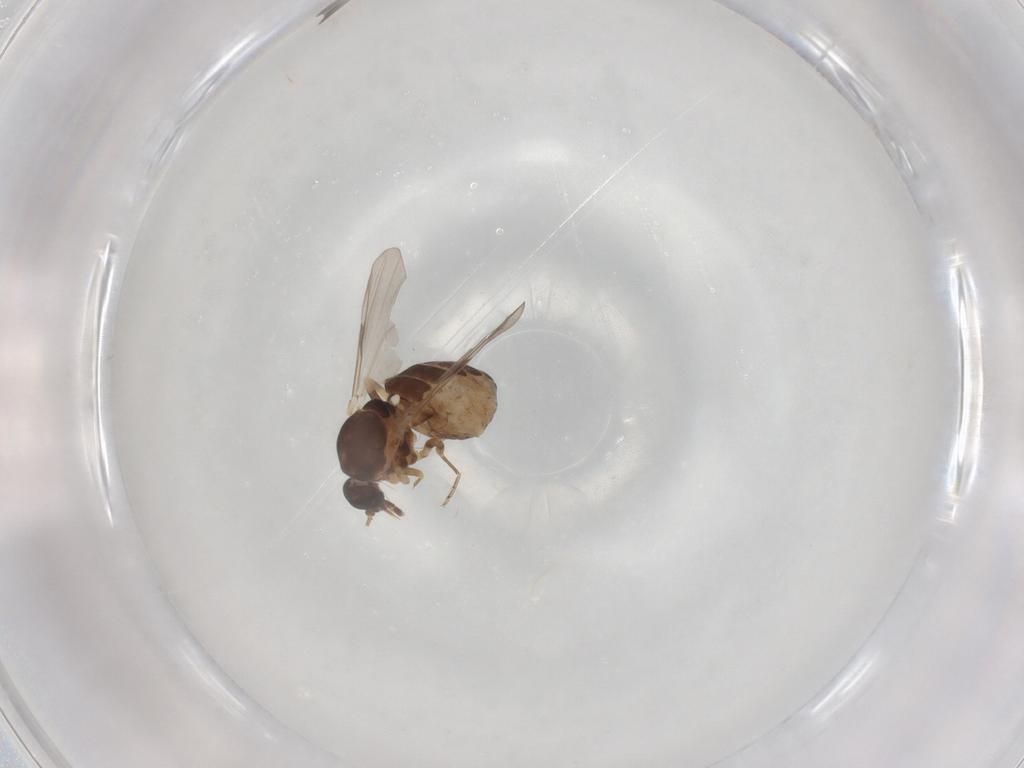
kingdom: Animalia
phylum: Arthropoda
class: Insecta
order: Diptera
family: Ceratopogonidae
